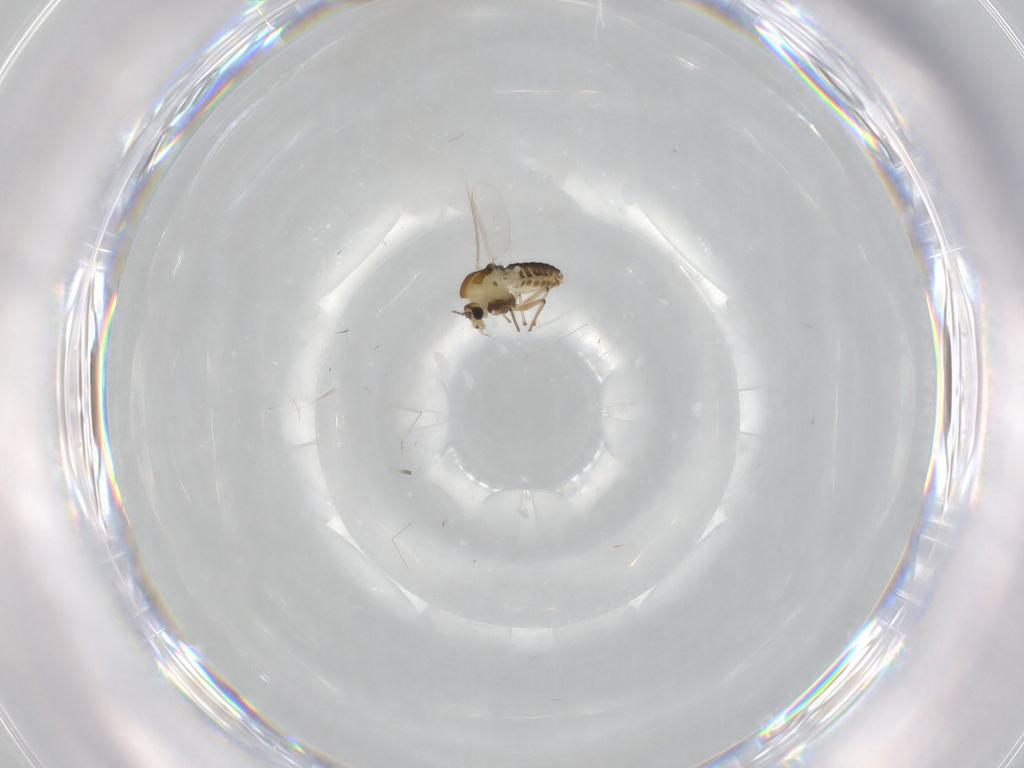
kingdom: Animalia
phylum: Arthropoda
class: Insecta
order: Diptera
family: Chironomidae
